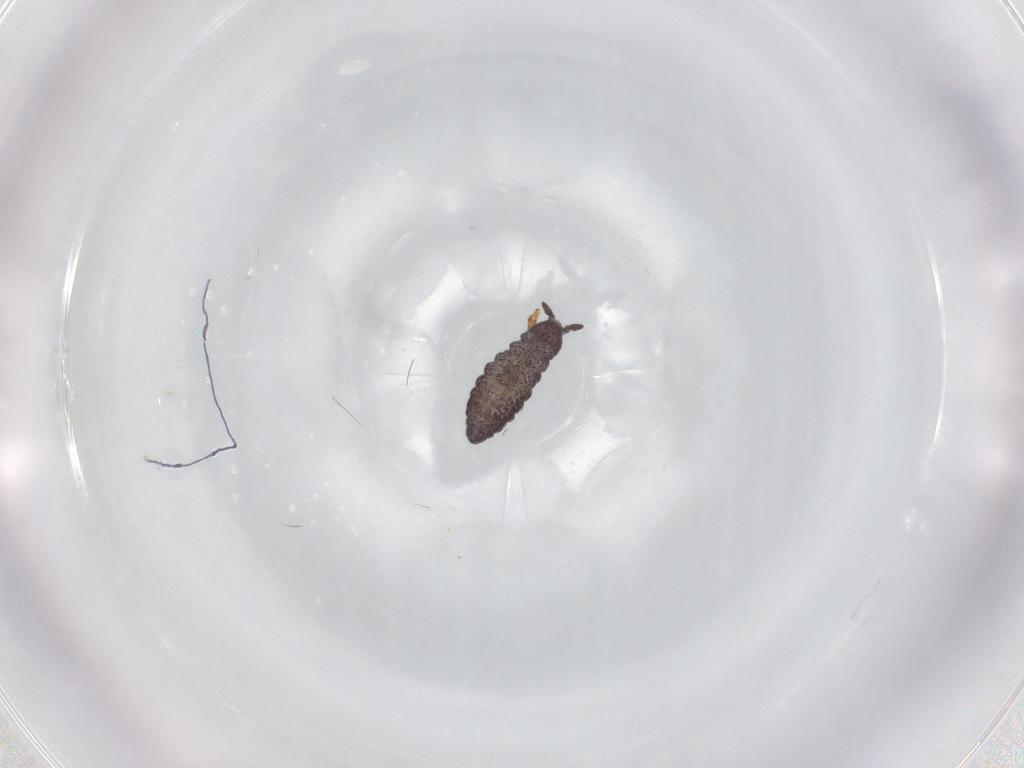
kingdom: Animalia
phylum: Arthropoda
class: Collembola
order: Poduromorpha
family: Hypogastruridae
